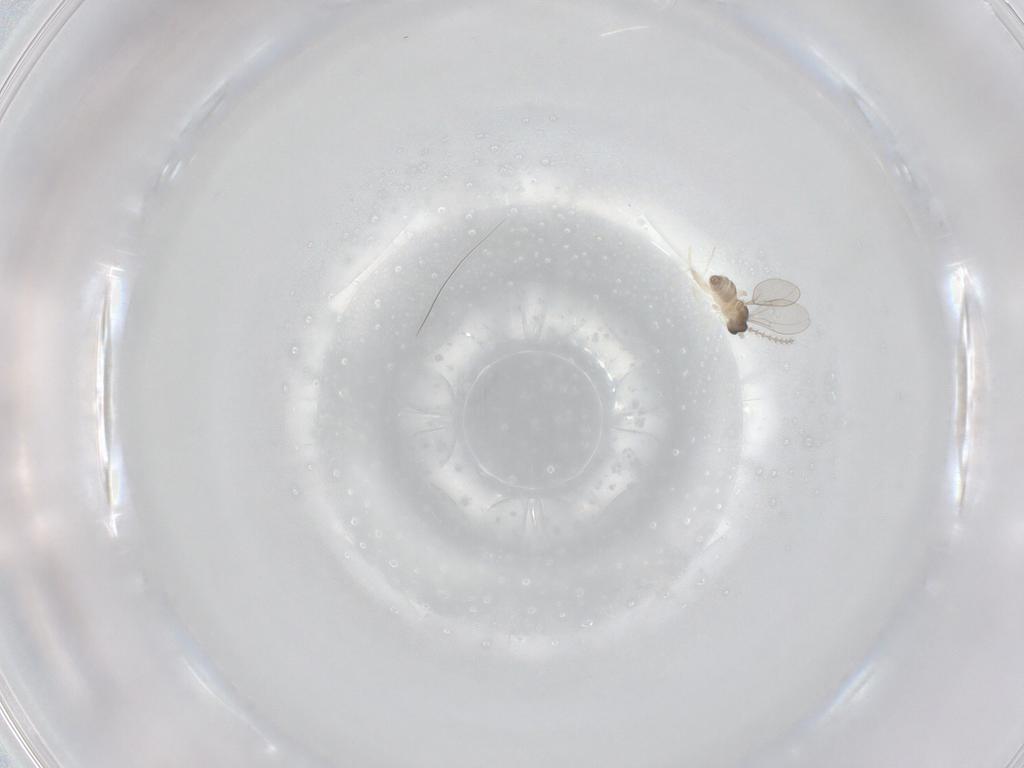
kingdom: Animalia
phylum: Arthropoda
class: Insecta
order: Diptera
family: Cecidomyiidae
